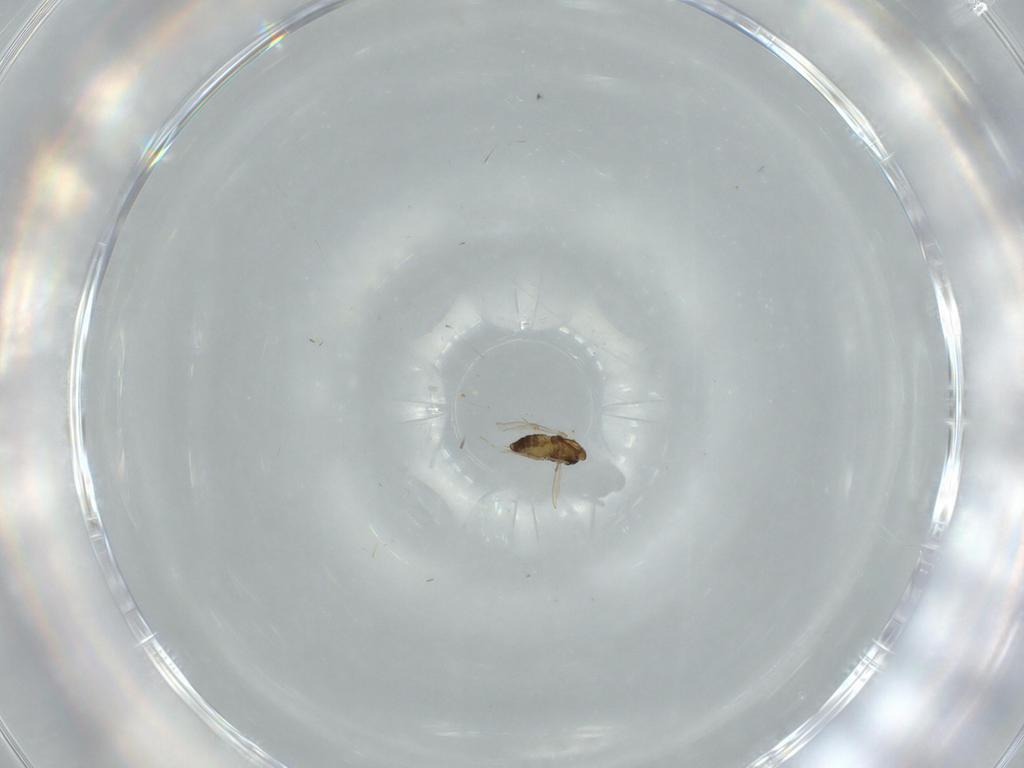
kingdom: Animalia
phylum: Arthropoda
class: Insecta
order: Diptera
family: Chironomidae
